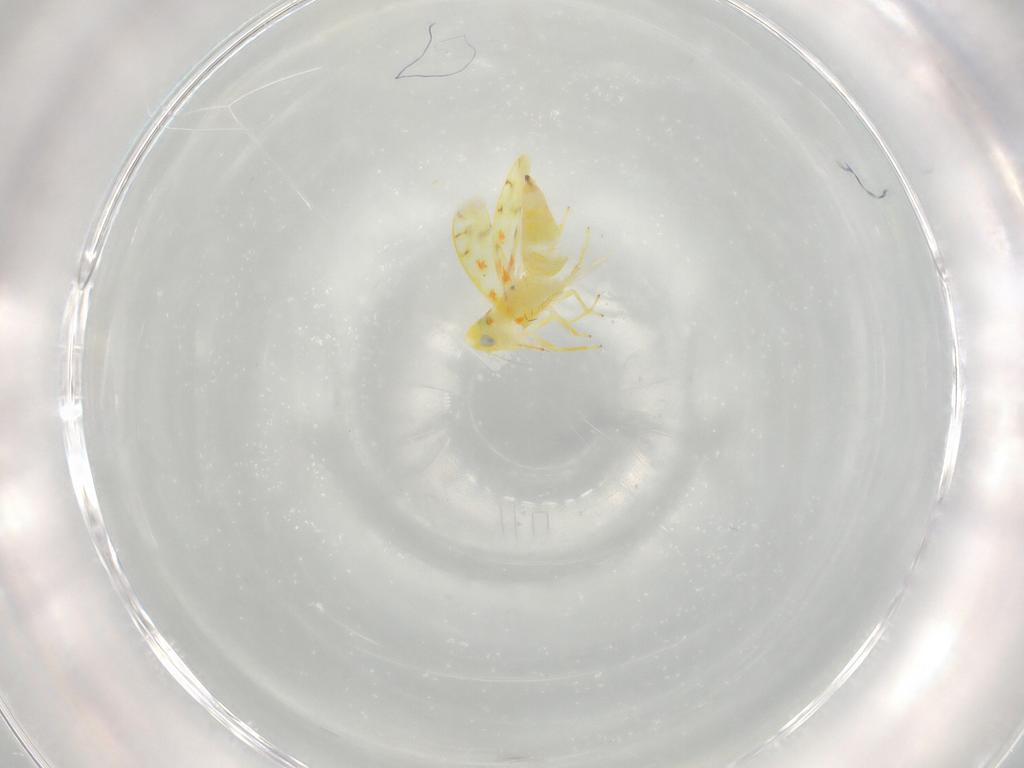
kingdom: Animalia
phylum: Arthropoda
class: Insecta
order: Hemiptera
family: Cicadellidae
